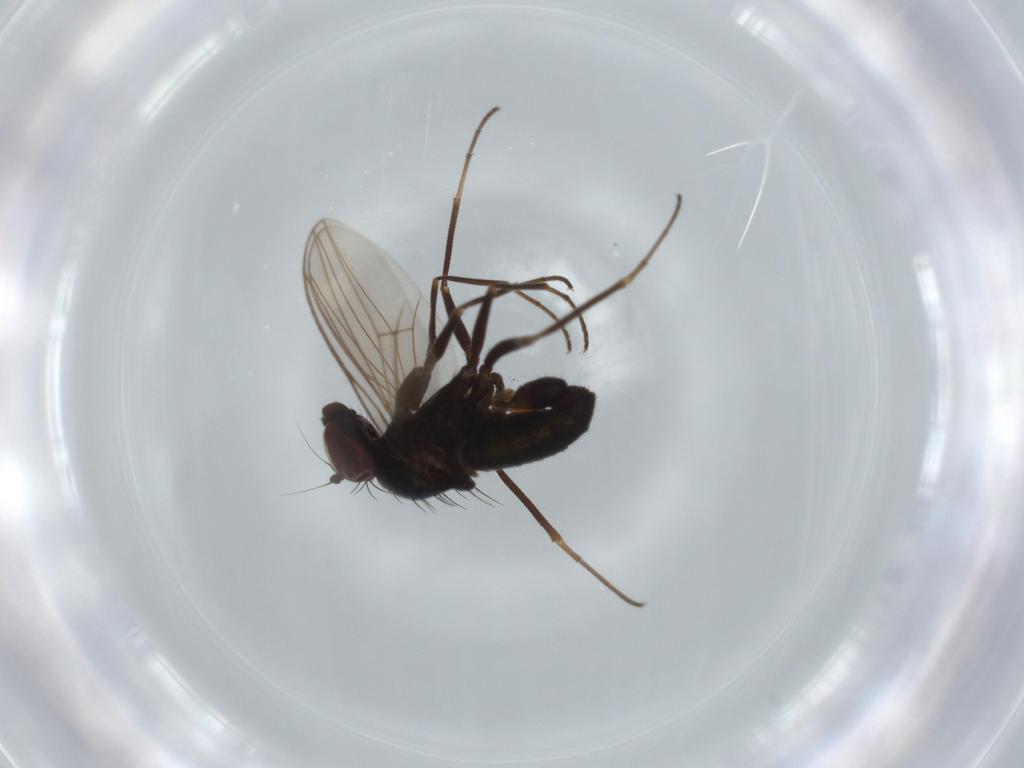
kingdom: Animalia
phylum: Arthropoda
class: Insecta
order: Diptera
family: Dolichopodidae
